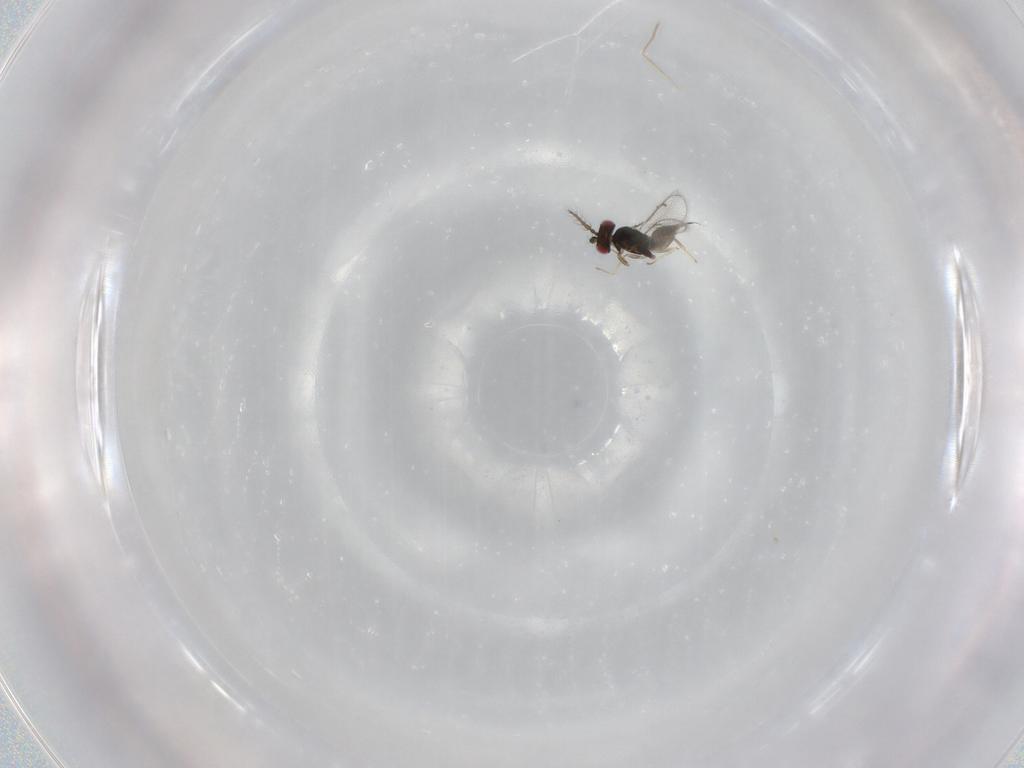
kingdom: Animalia
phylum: Arthropoda
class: Insecta
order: Hymenoptera
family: Eulophidae
